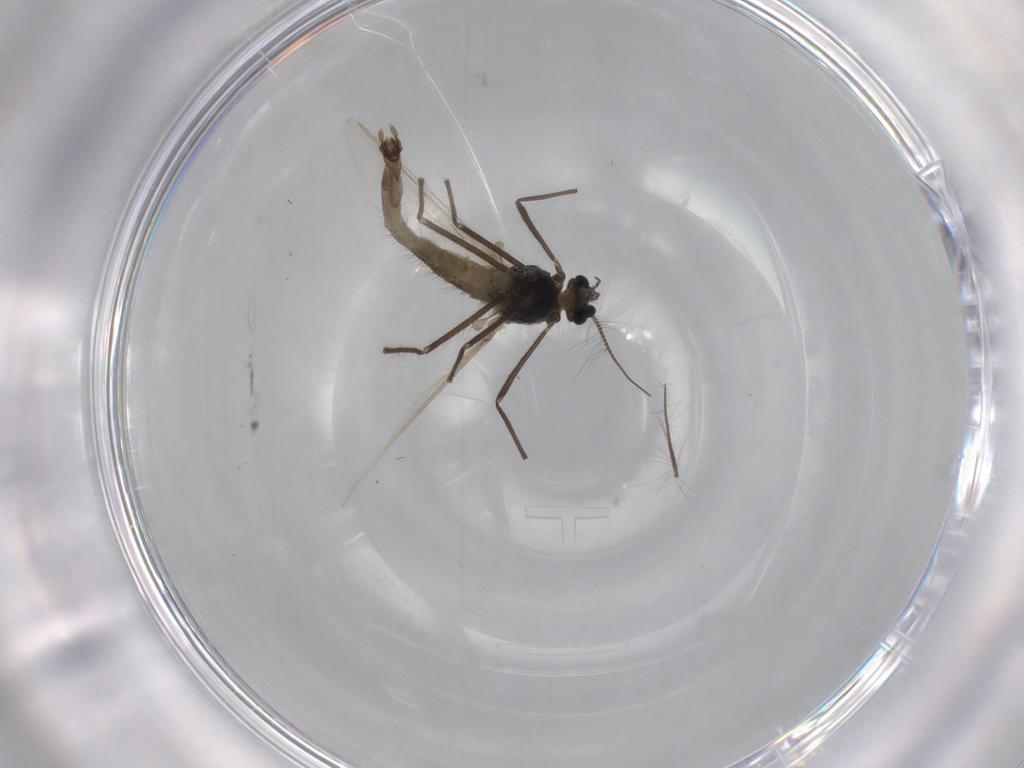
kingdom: Animalia
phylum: Arthropoda
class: Insecta
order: Diptera
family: Chironomidae
